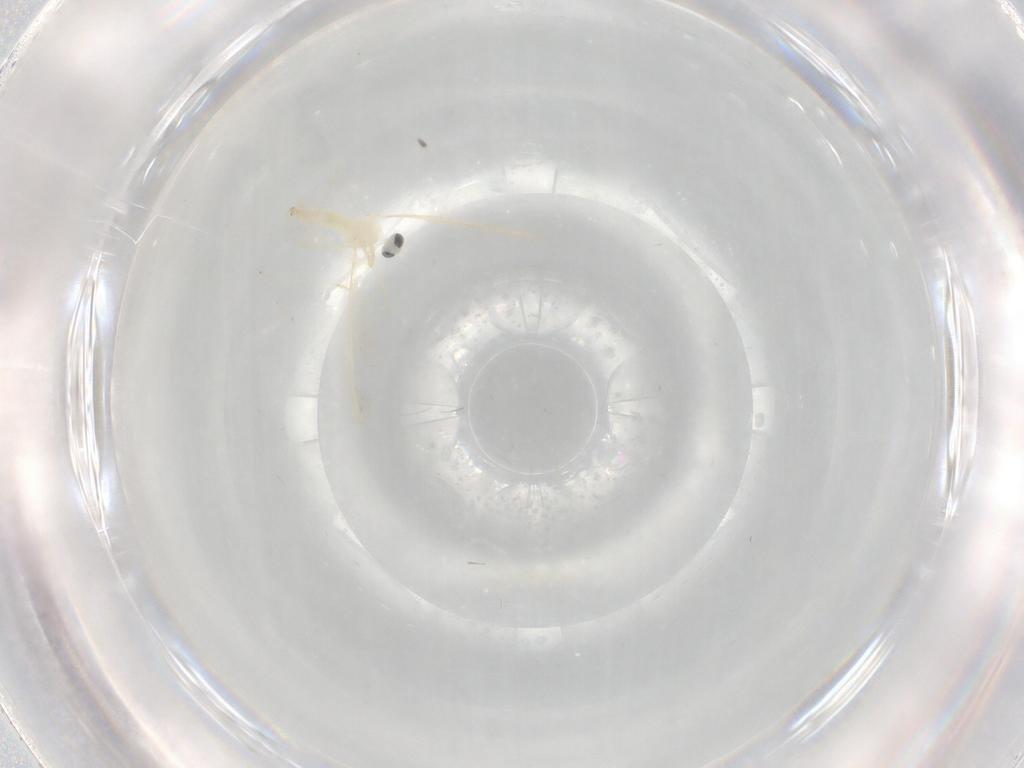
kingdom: Animalia
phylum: Arthropoda
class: Insecta
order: Diptera
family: Cecidomyiidae
